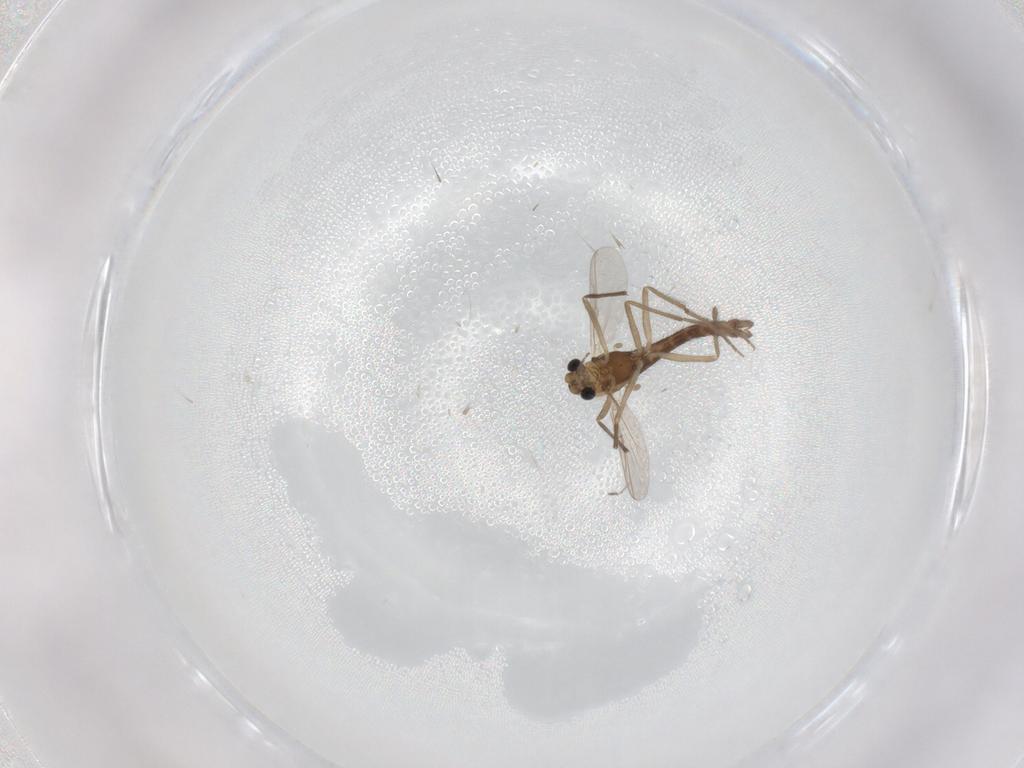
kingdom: Animalia
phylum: Arthropoda
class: Insecta
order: Diptera
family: Chironomidae
